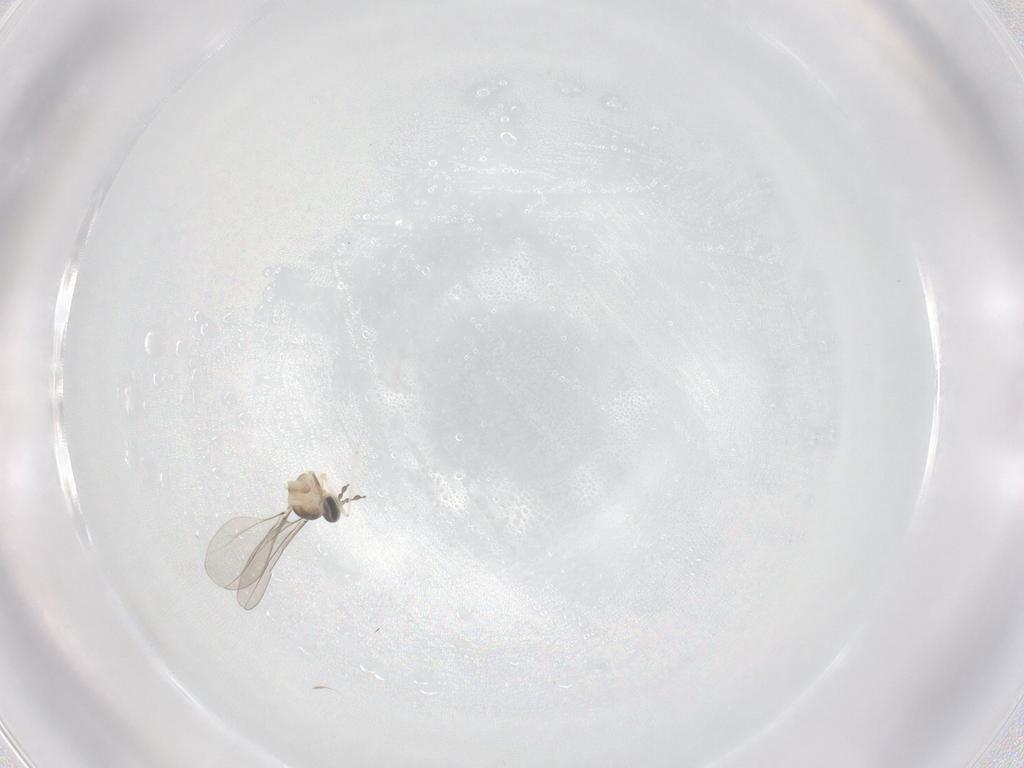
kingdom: Animalia
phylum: Arthropoda
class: Insecta
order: Diptera
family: Cecidomyiidae
